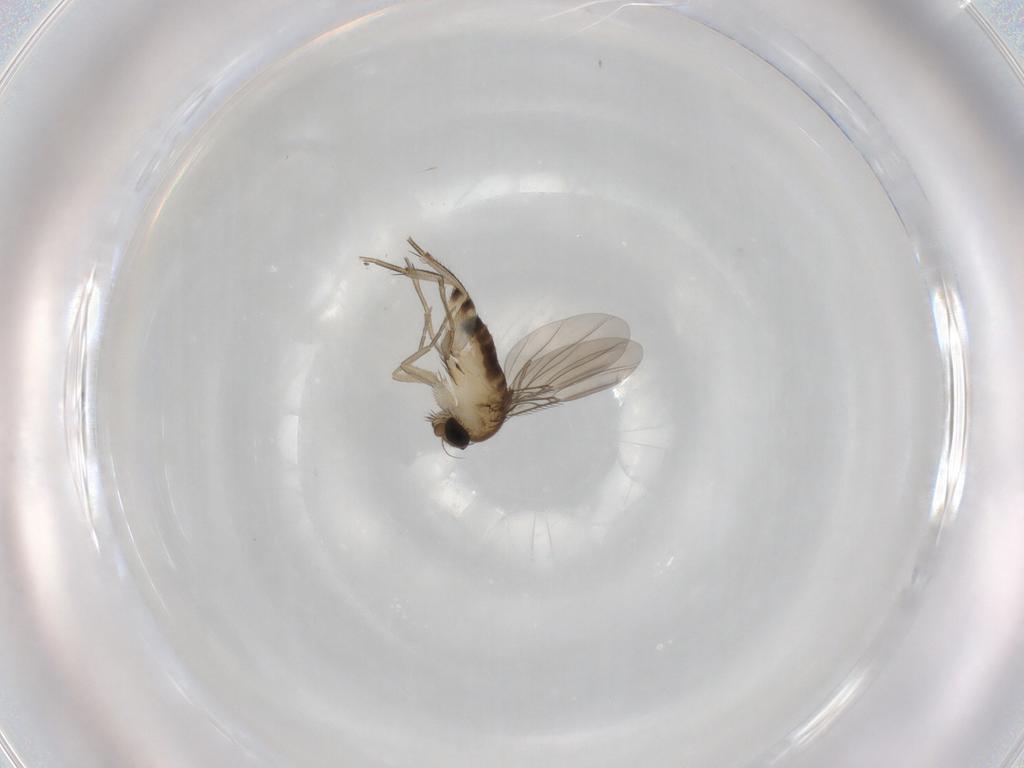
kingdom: Animalia
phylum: Arthropoda
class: Insecta
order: Diptera
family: Phoridae
